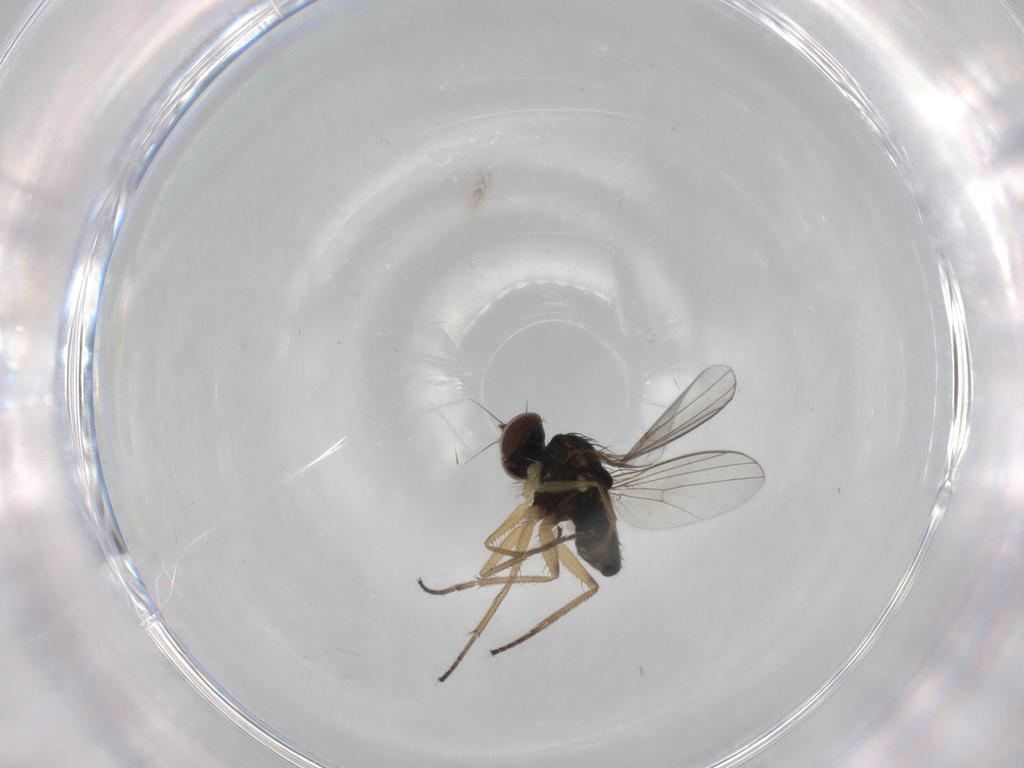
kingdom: Animalia
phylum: Arthropoda
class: Insecta
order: Diptera
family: Dolichopodidae
